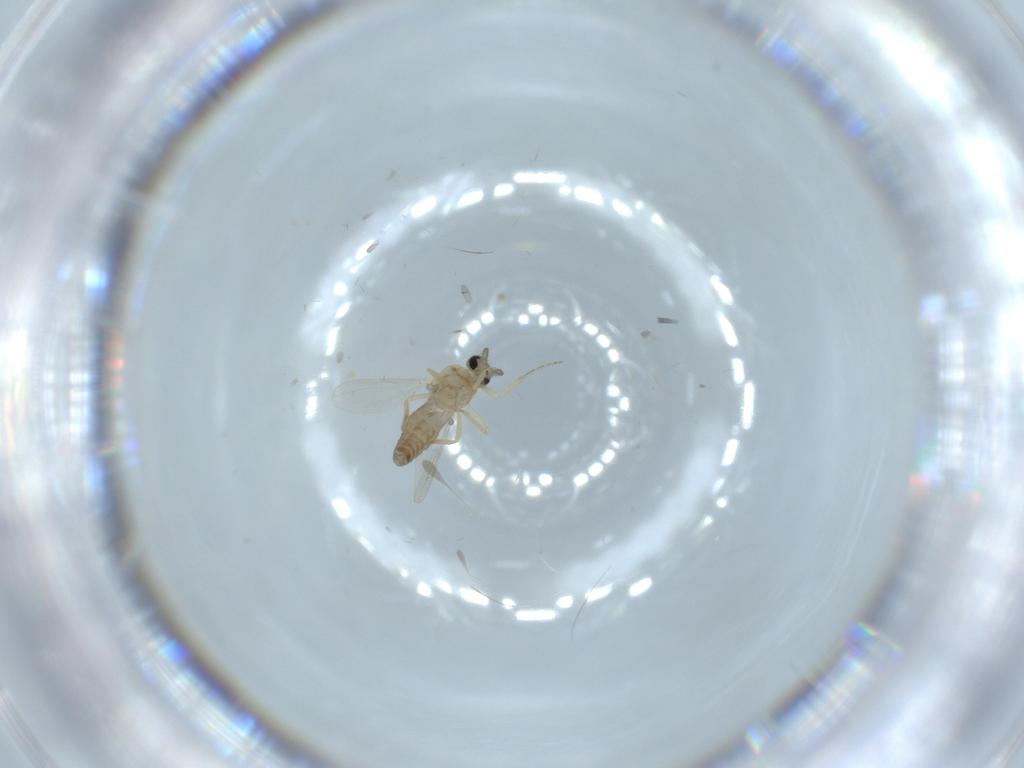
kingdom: Animalia
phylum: Arthropoda
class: Insecta
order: Diptera
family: Ceratopogonidae
